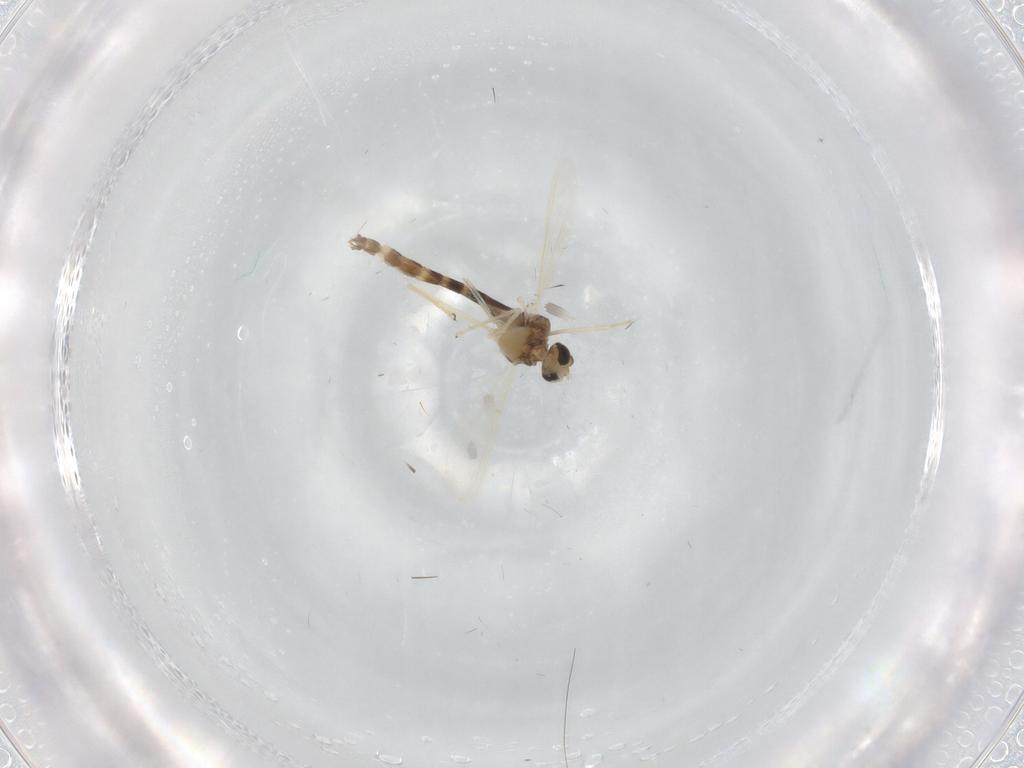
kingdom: Animalia
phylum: Arthropoda
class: Insecta
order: Diptera
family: Chironomidae
